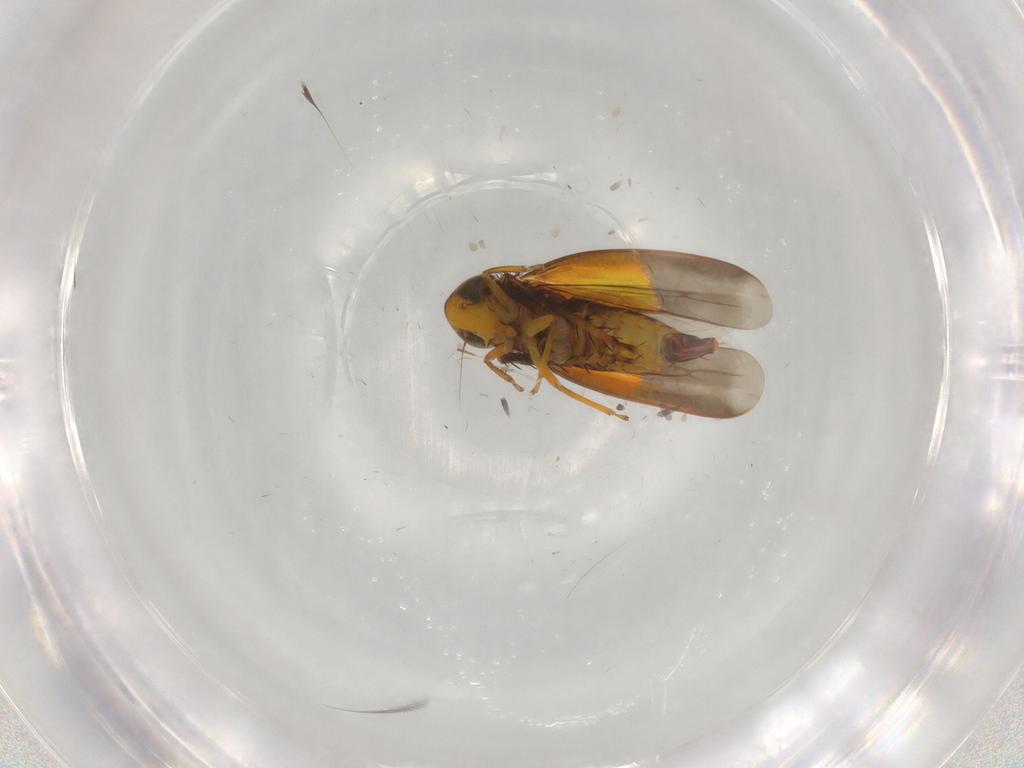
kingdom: Animalia
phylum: Arthropoda
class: Insecta
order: Hemiptera
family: Cicadellidae
